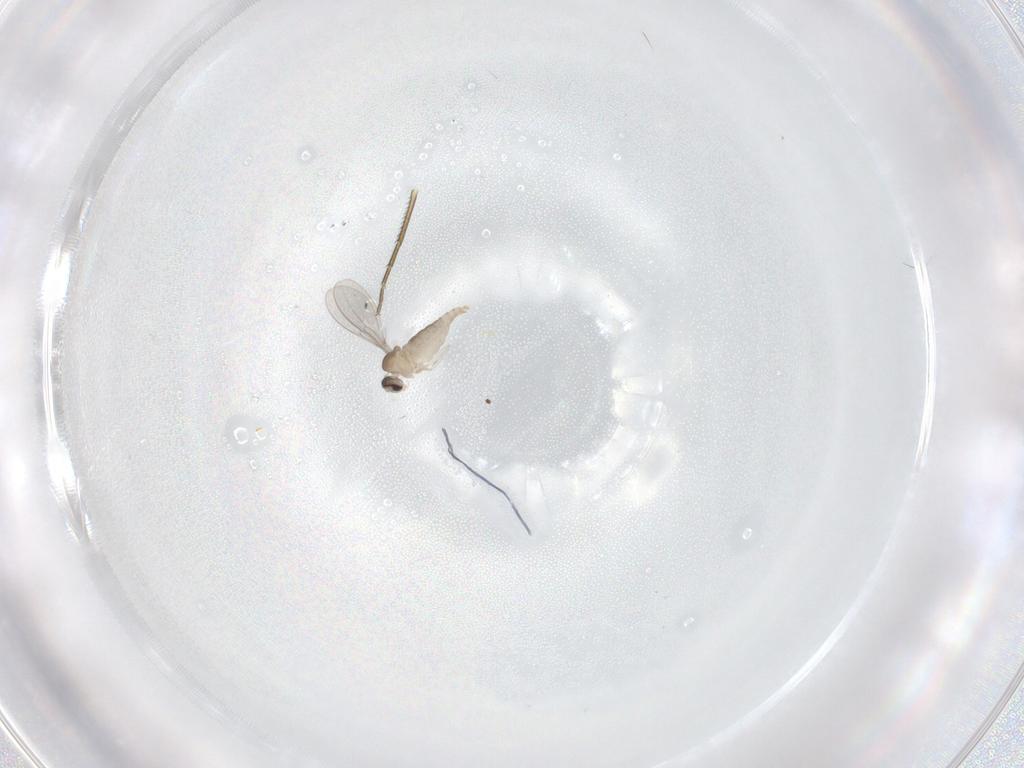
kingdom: Animalia
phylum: Arthropoda
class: Insecta
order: Diptera
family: Cecidomyiidae
